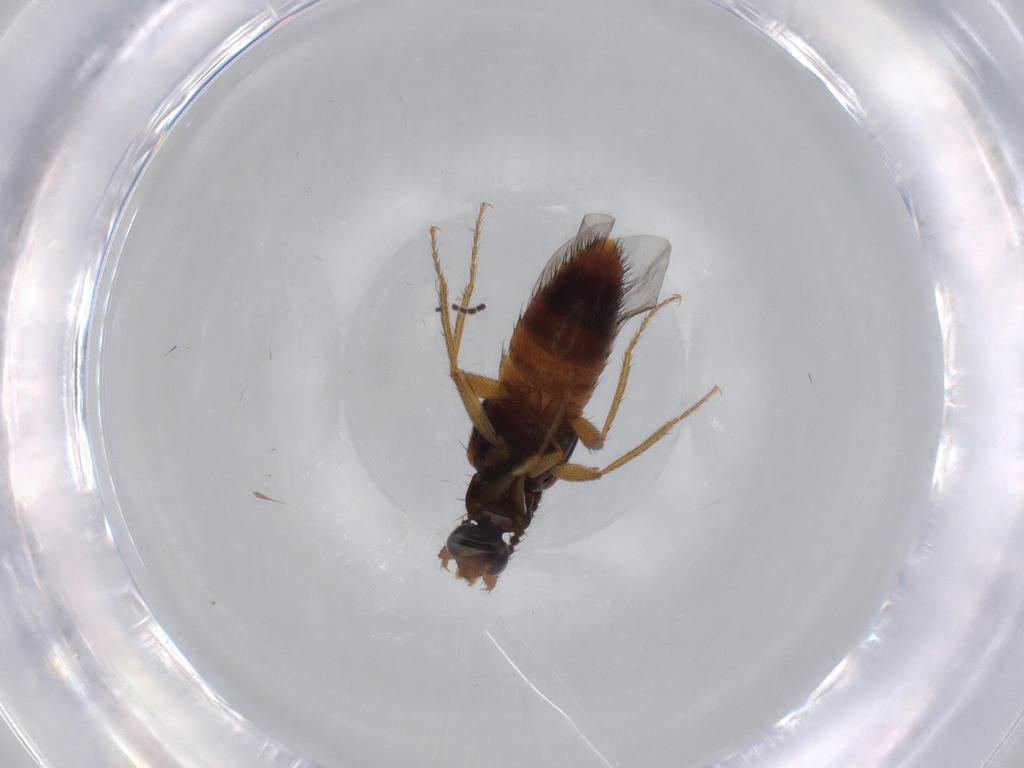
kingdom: Animalia
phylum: Arthropoda
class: Insecta
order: Coleoptera
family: Staphylinidae
